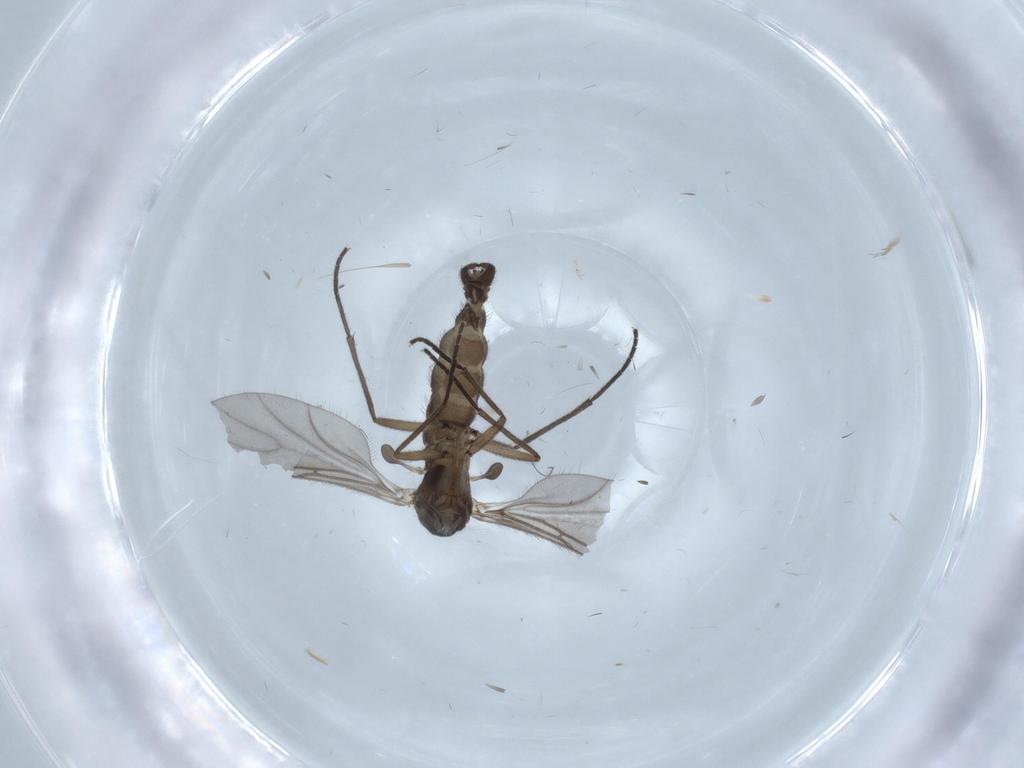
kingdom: Animalia
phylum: Arthropoda
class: Insecta
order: Diptera
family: Sciaridae
